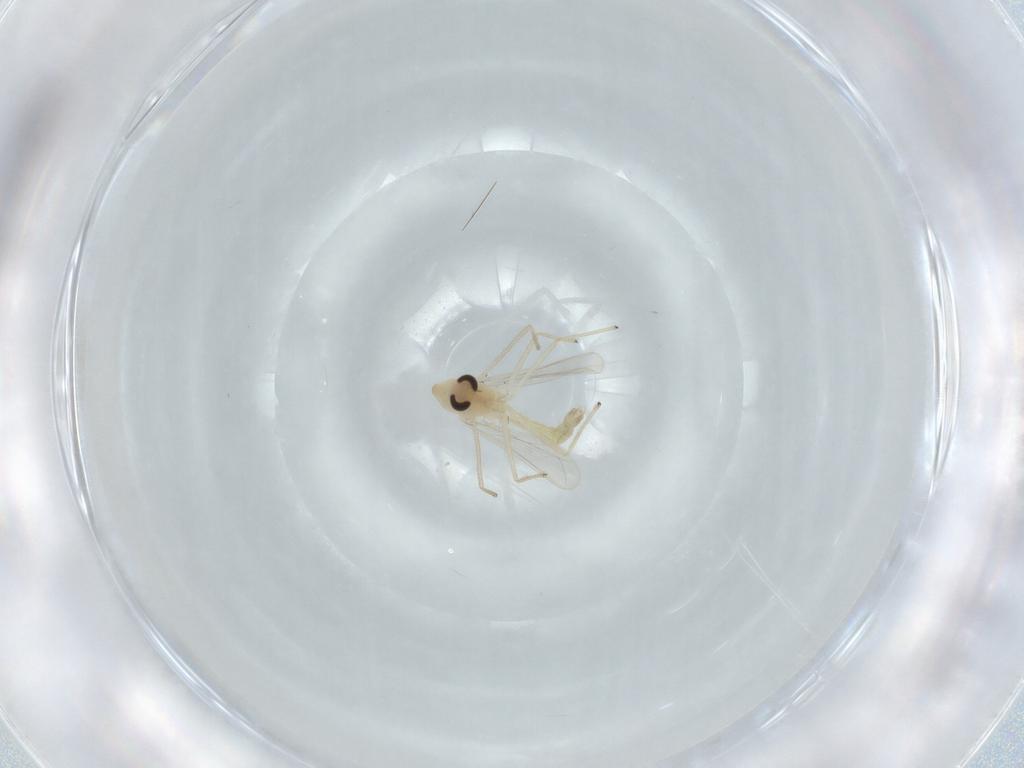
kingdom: Animalia
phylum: Arthropoda
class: Insecta
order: Diptera
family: Chironomidae
